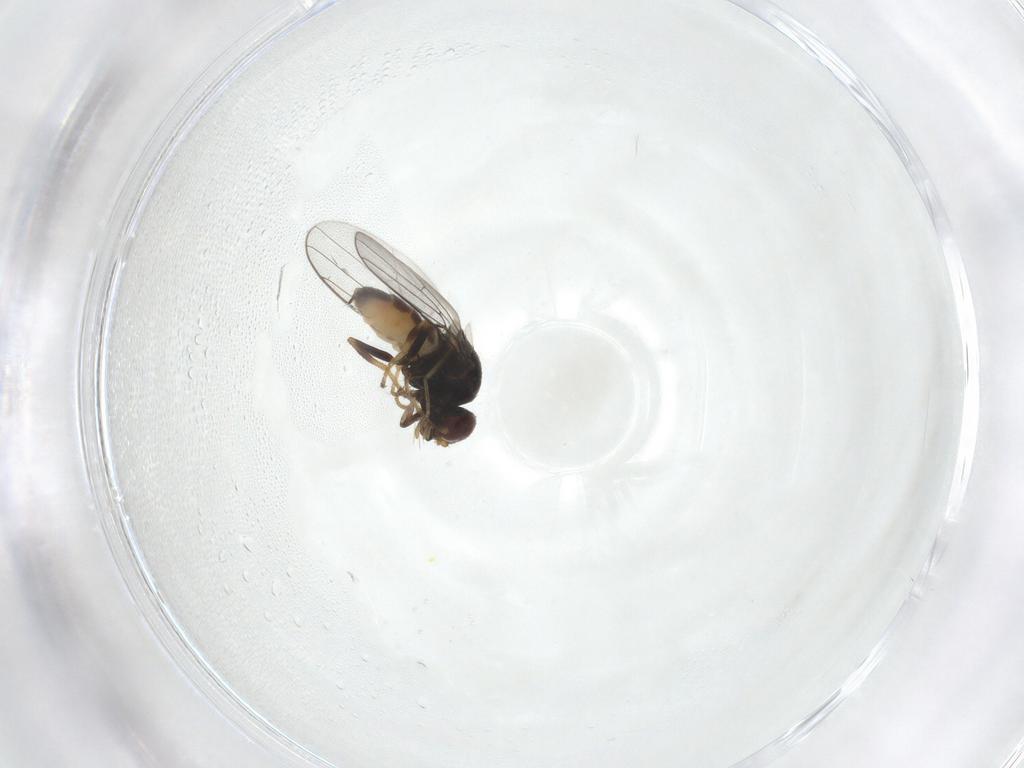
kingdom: Animalia
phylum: Arthropoda
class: Insecta
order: Diptera
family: Chloropidae
